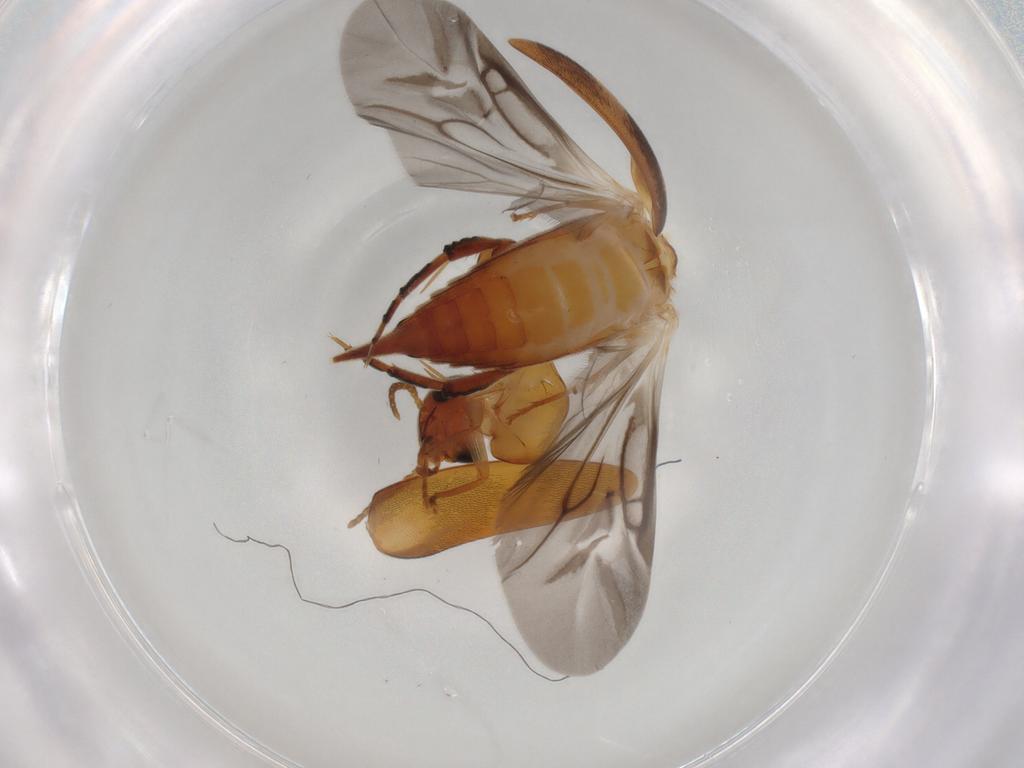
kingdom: Animalia
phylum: Arthropoda
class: Insecta
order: Coleoptera
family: Mordellidae
